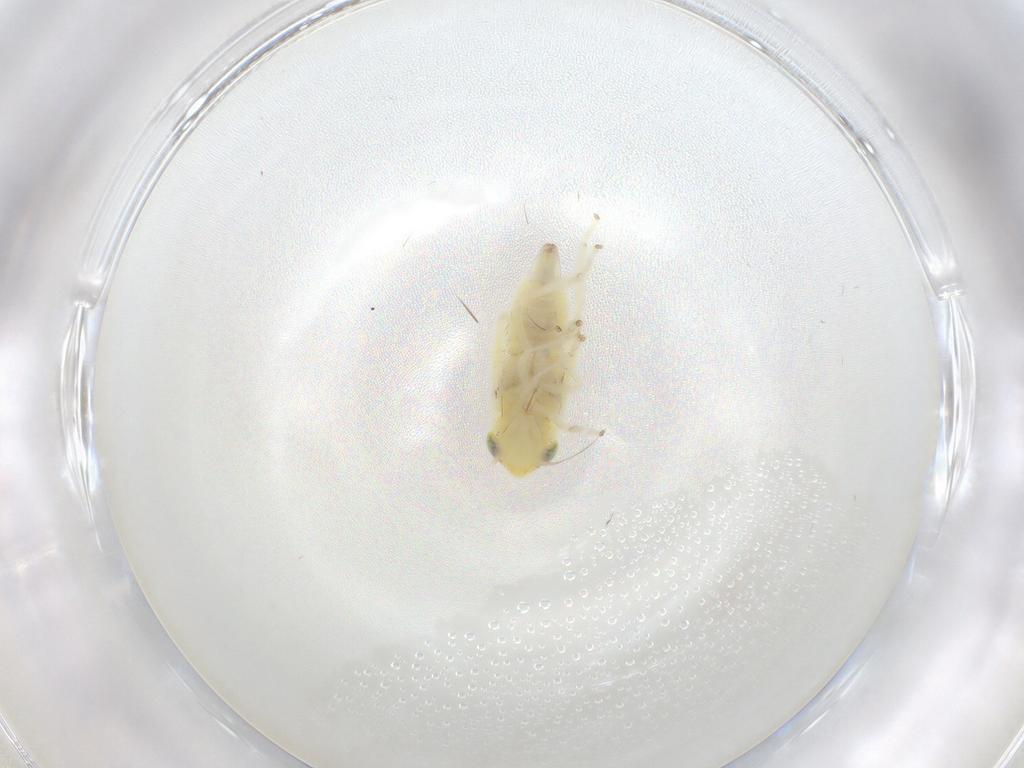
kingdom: Animalia
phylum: Arthropoda
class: Insecta
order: Hemiptera
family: Cicadellidae
